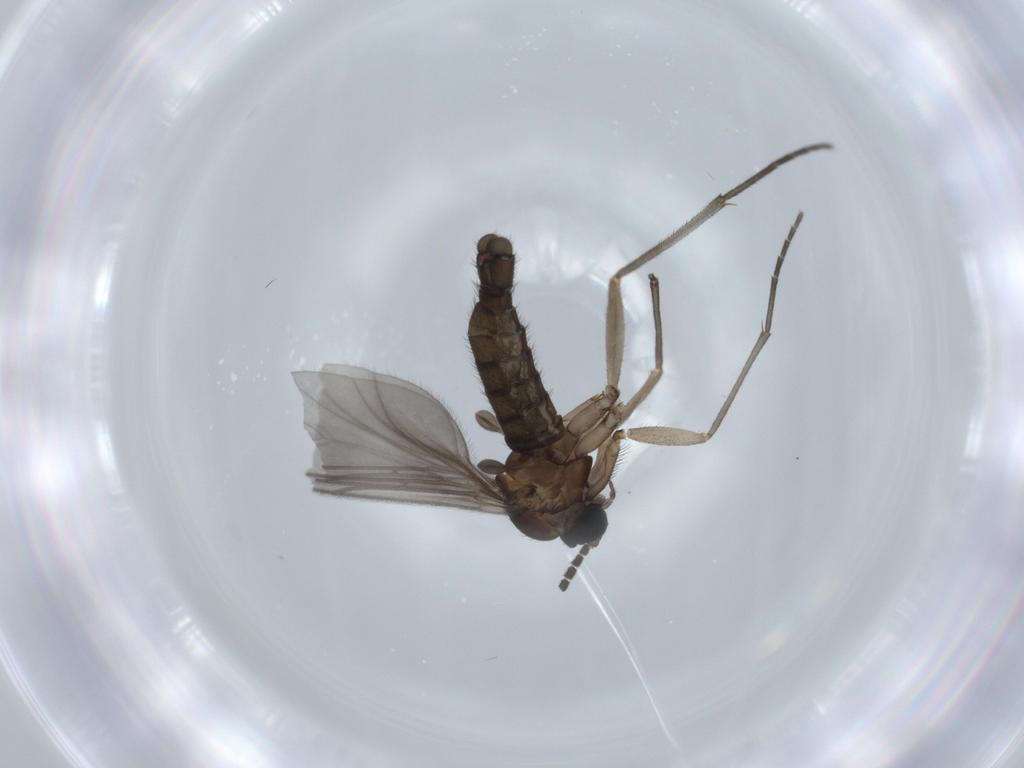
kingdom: Animalia
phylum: Arthropoda
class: Insecta
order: Diptera
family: Sciaridae
